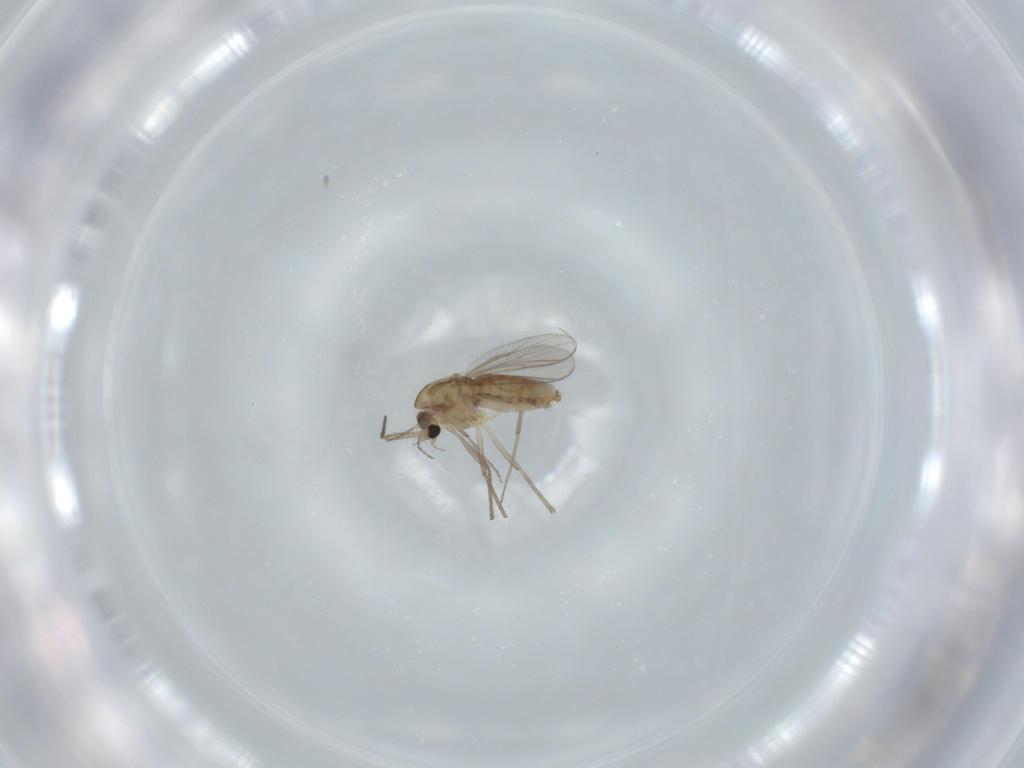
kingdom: Animalia
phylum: Arthropoda
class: Insecta
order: Diptera
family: Chironomidae
